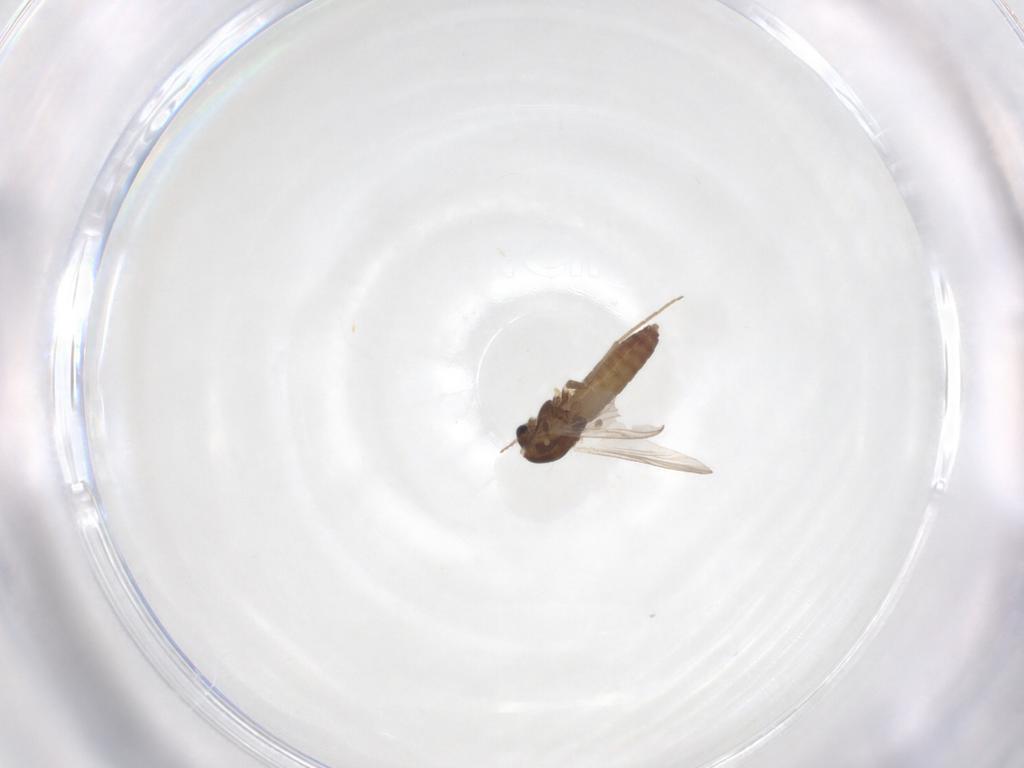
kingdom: Animalia
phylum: Arthropoda
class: Insecta
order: Diptera
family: Chironomidae
